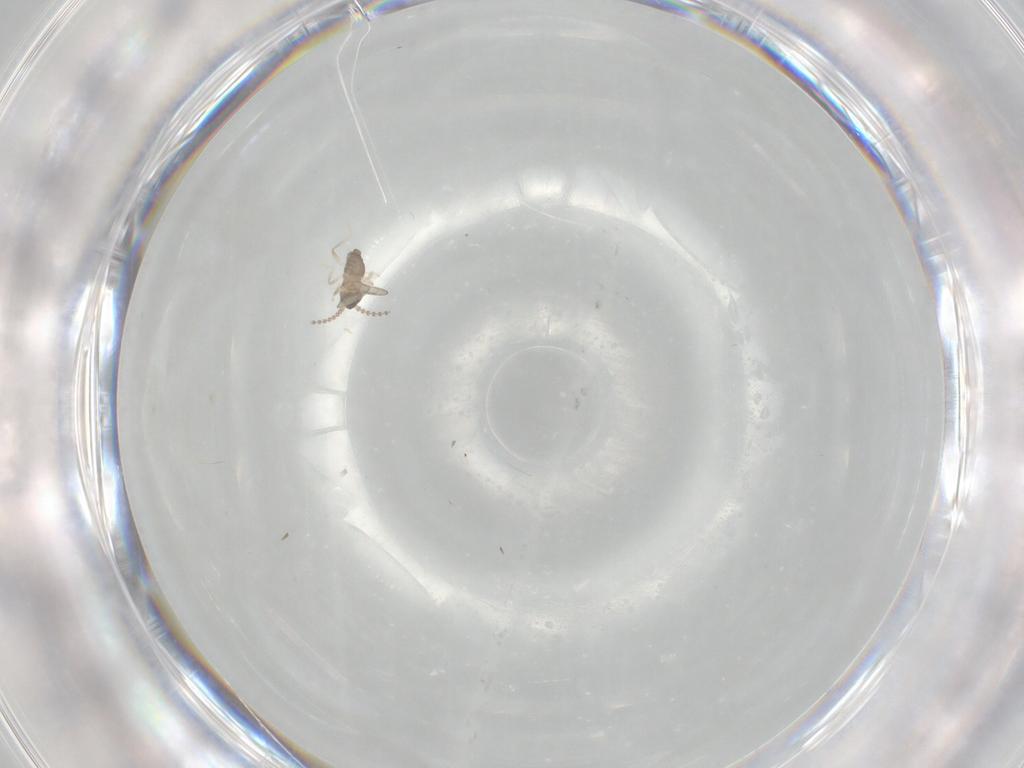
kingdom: Animalia
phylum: Arthropoda
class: Insecta
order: Diptera
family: Cecidomyiidae
